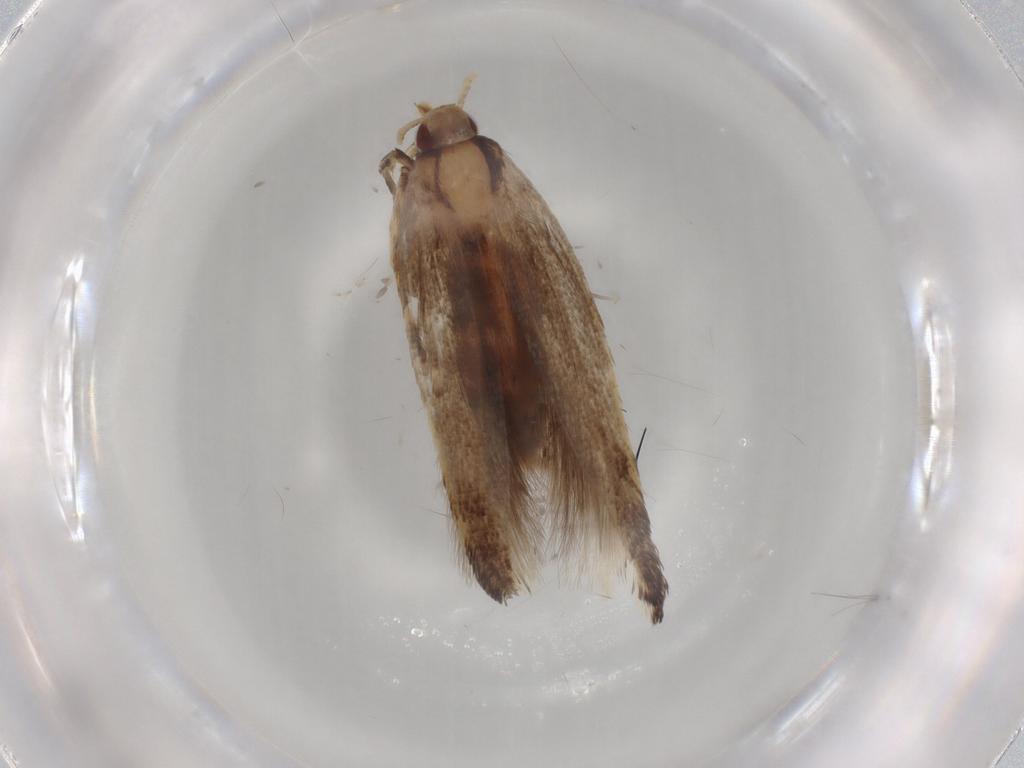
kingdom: Animalia
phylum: Arthropoda
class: Insecta
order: Lepidoptera
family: Cosmopterigidae
